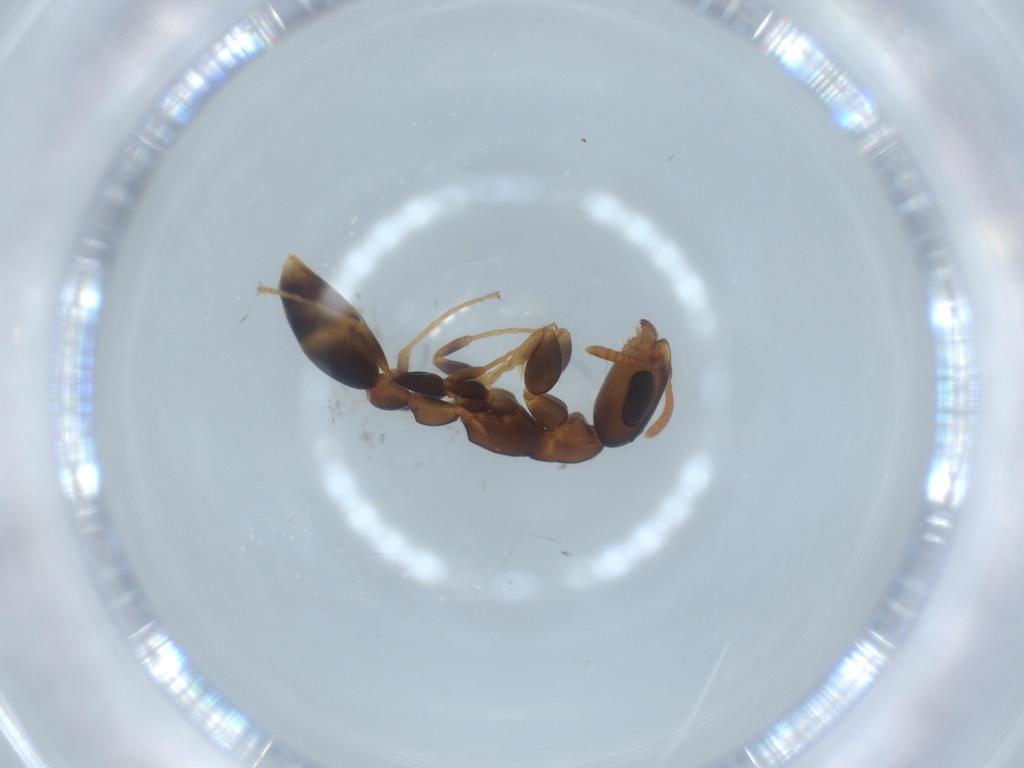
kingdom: Animalia
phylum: Arthropoda
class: Insecta
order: Hymenoptera
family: Formicidae
